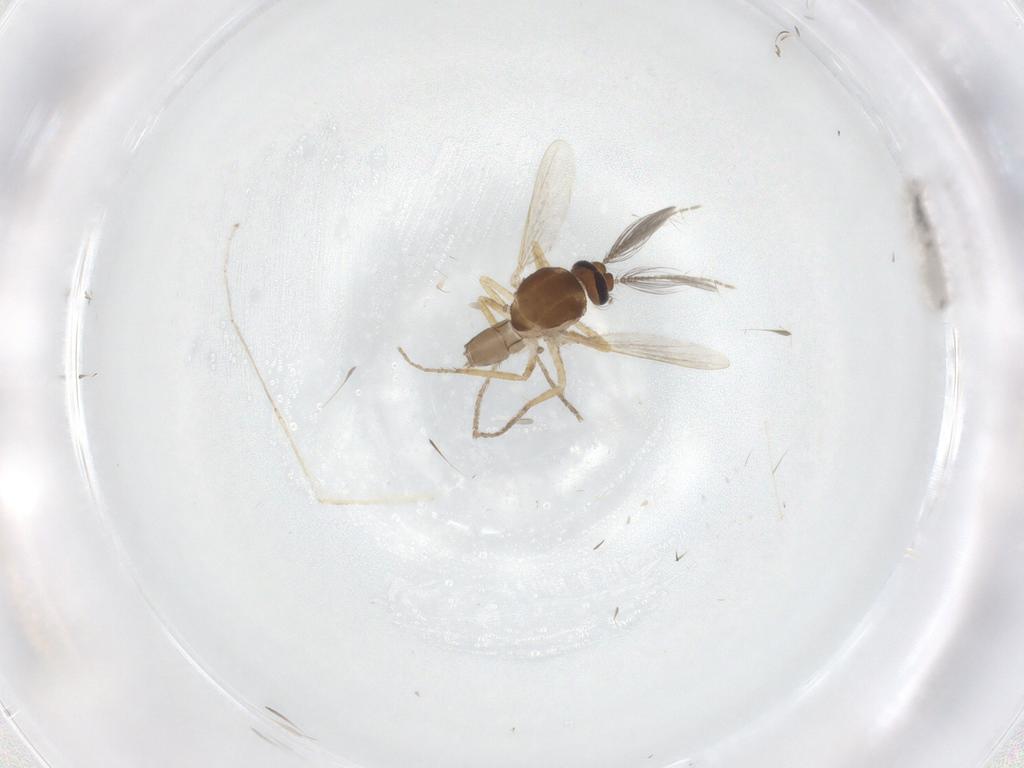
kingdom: Animalia
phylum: Arthropoda
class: Insecta
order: Diptera
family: Ceratopogonidae
